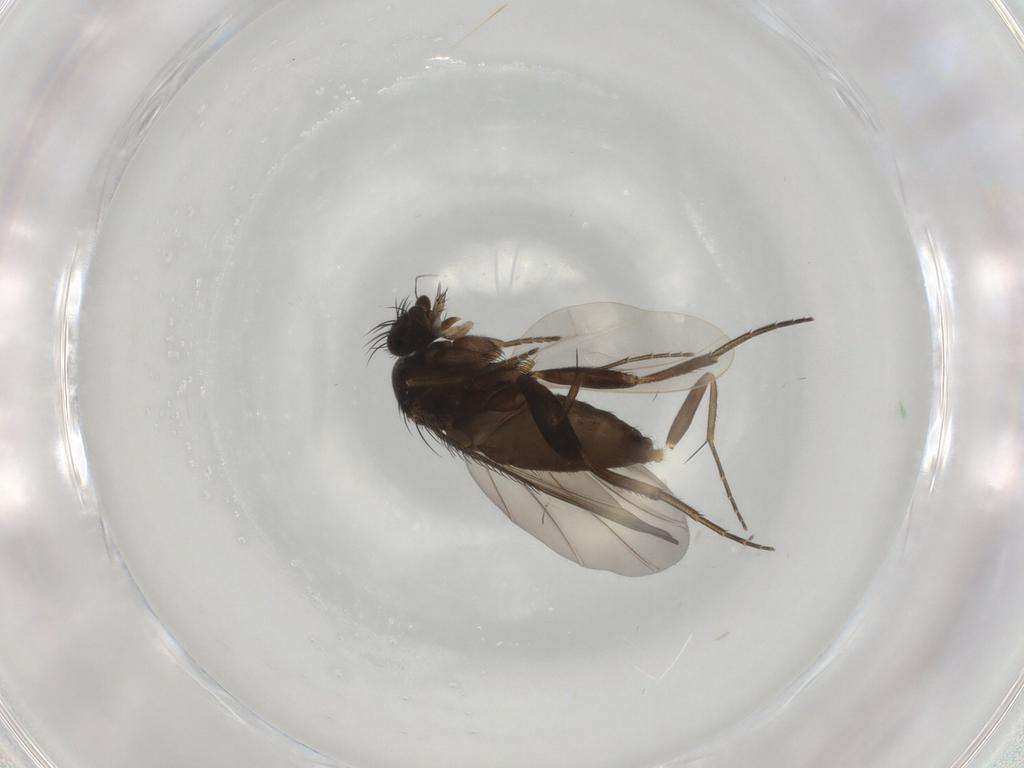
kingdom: Animalia
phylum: Arthropoda
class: Insecta
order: Diptera
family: Phoridae
